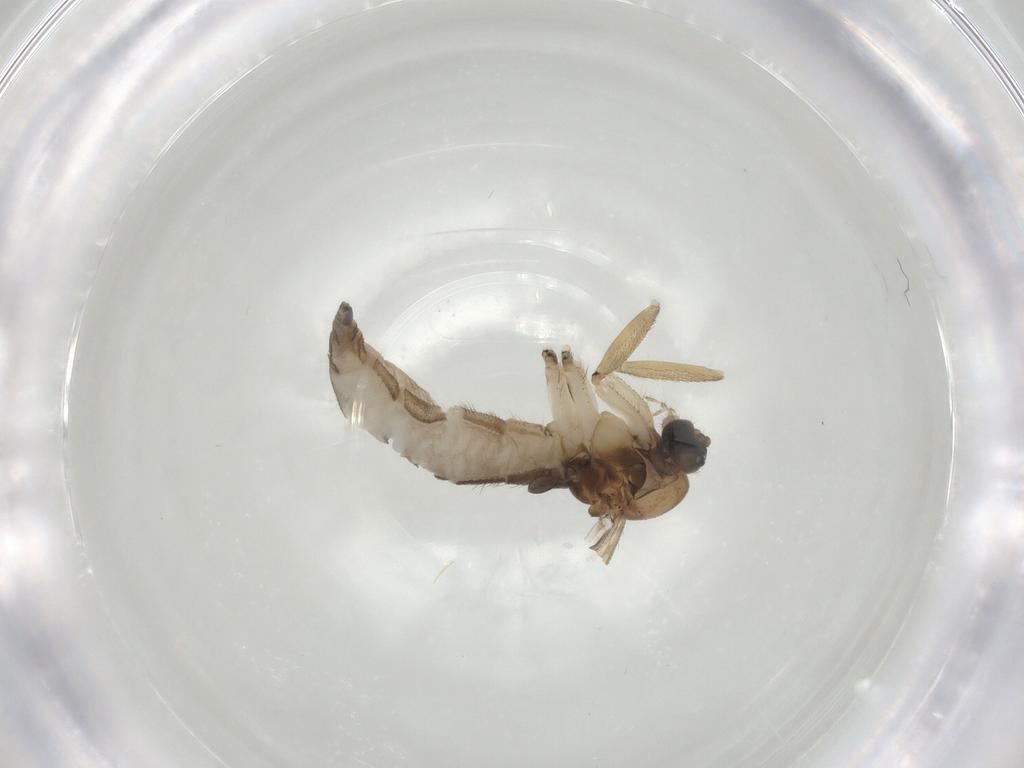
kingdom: Animalia
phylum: Arthropoda
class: Insecta
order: Diptera
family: Sciaridae
